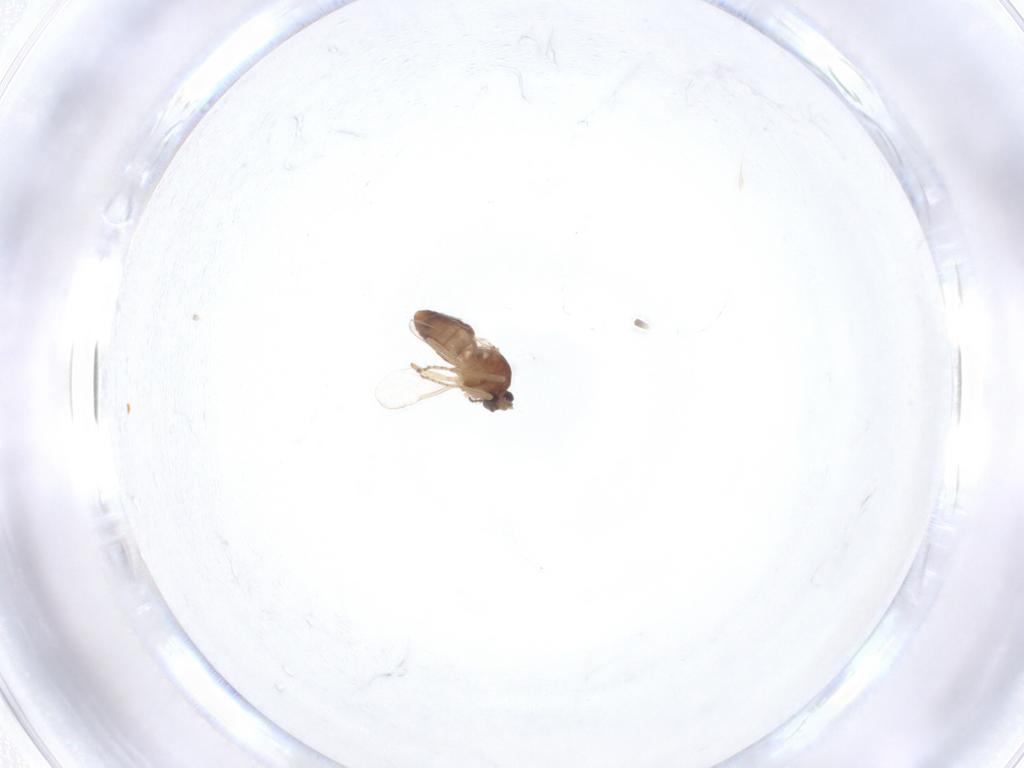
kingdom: Animalia
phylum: Arthropoda
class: Insecta
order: Diptera
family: Ceratopogonidae
